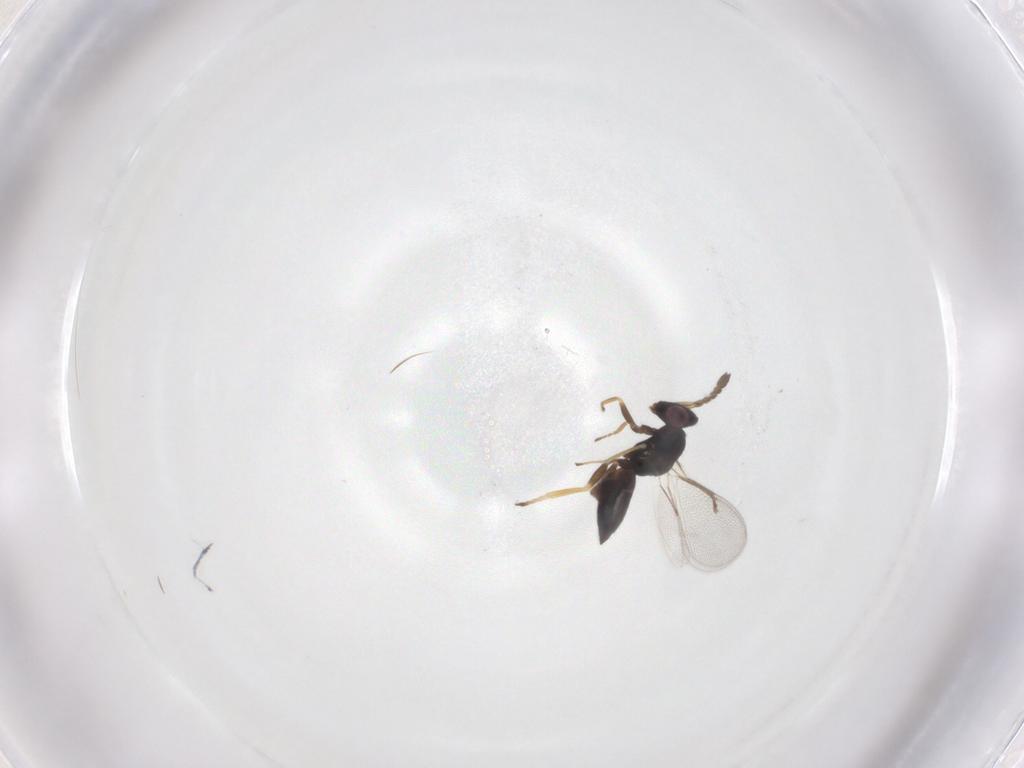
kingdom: Animalia
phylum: Arthropoda
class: Insecta
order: Hymenoptera
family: Eulophidae
